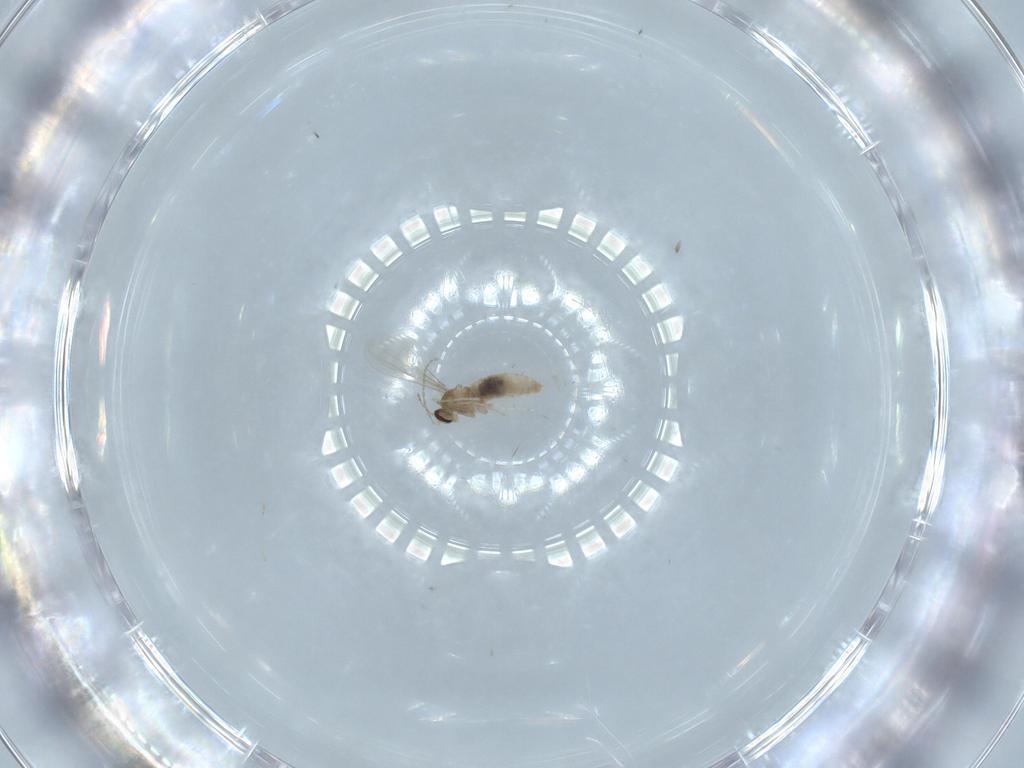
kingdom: Animalia
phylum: Arthropoda
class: Insecta
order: Diptera
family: Sciaridae
